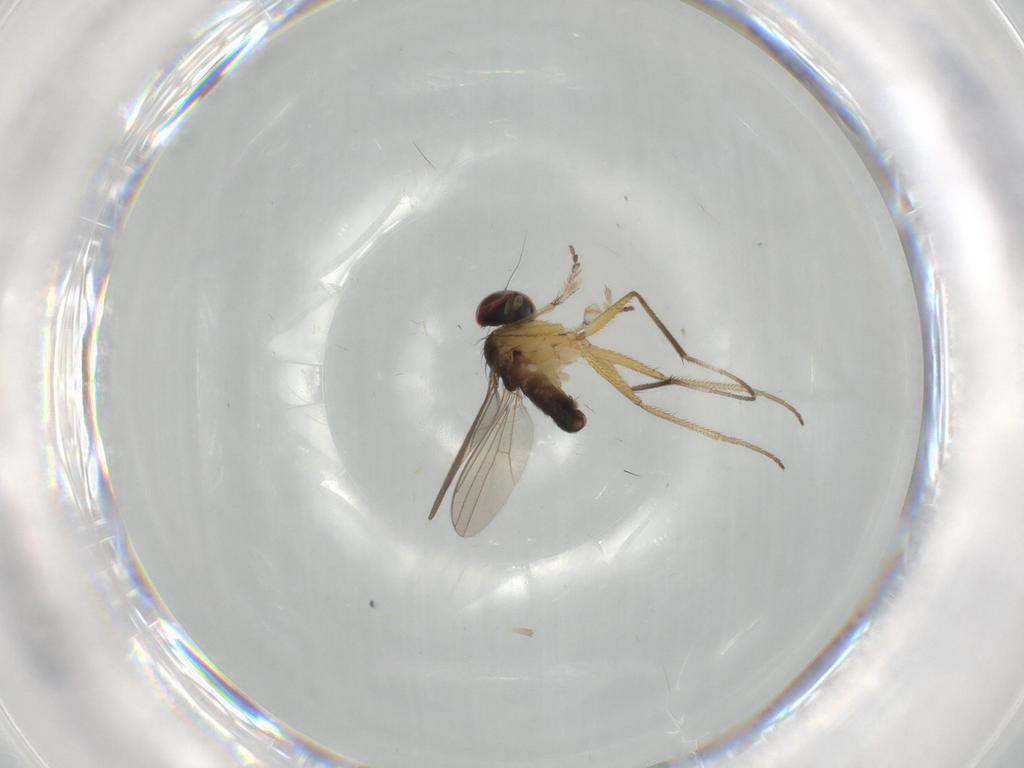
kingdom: Animalia
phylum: Arthropoda
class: Insecta
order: Diptera
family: Dolichopodidae
